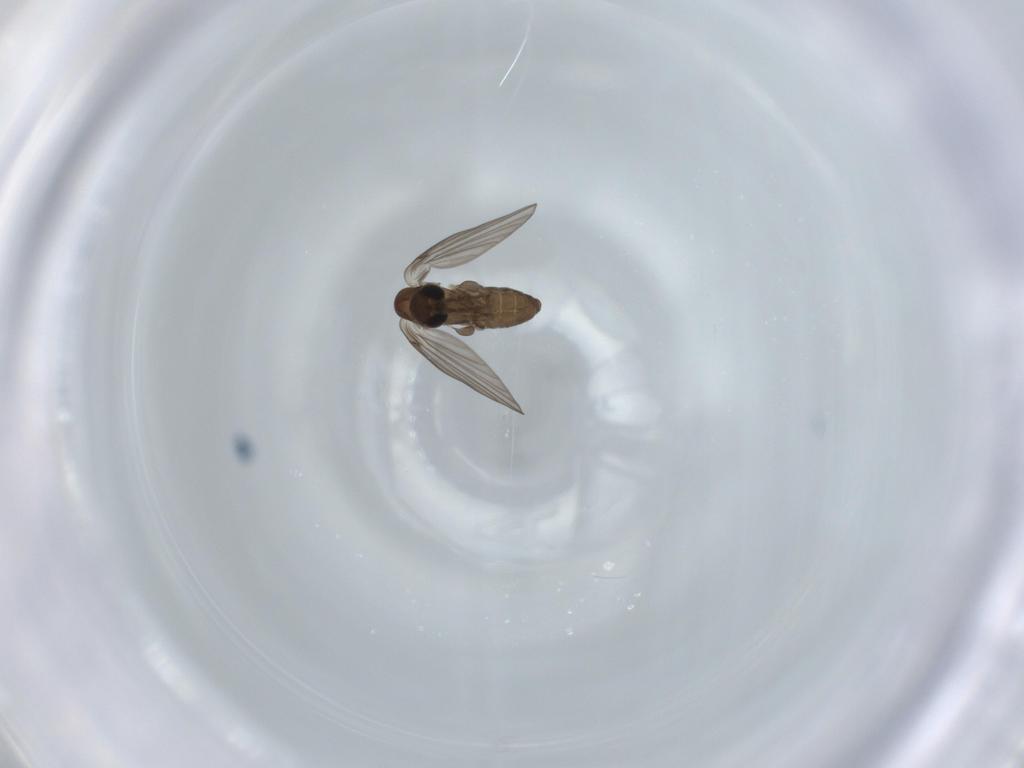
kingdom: Animalia
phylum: Arthropoda
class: Insecta
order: Diptera
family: Psychodidae
